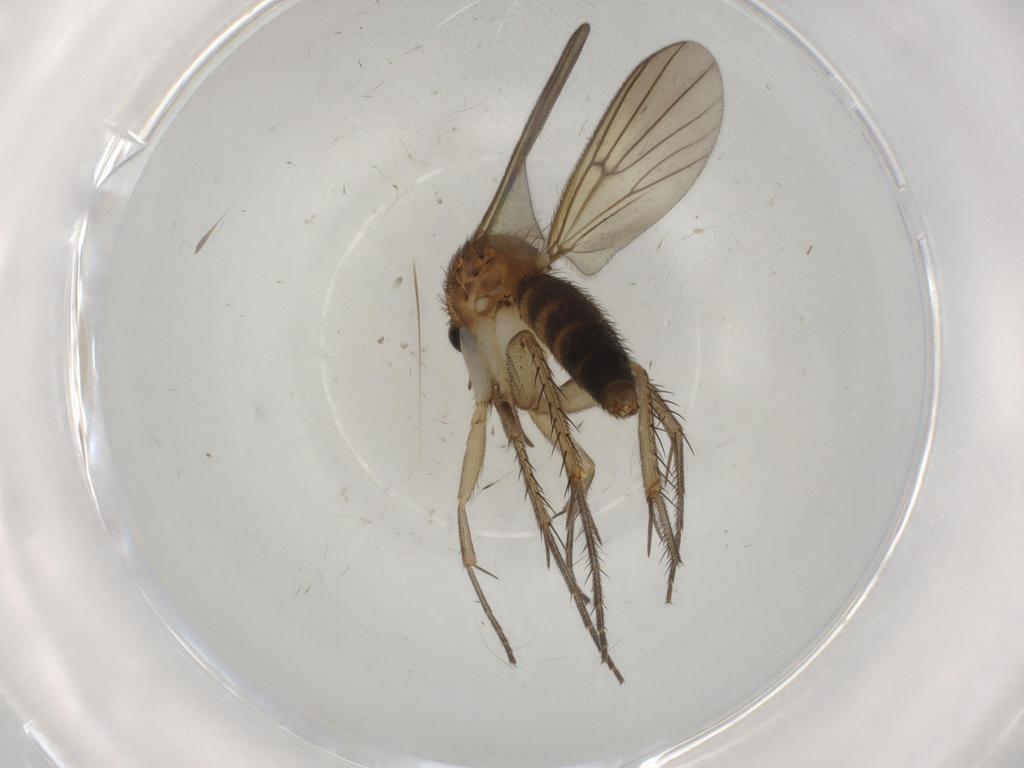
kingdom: Animalia
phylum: Arthropoda
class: Insecta
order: Diptera
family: Mycetophilidae
